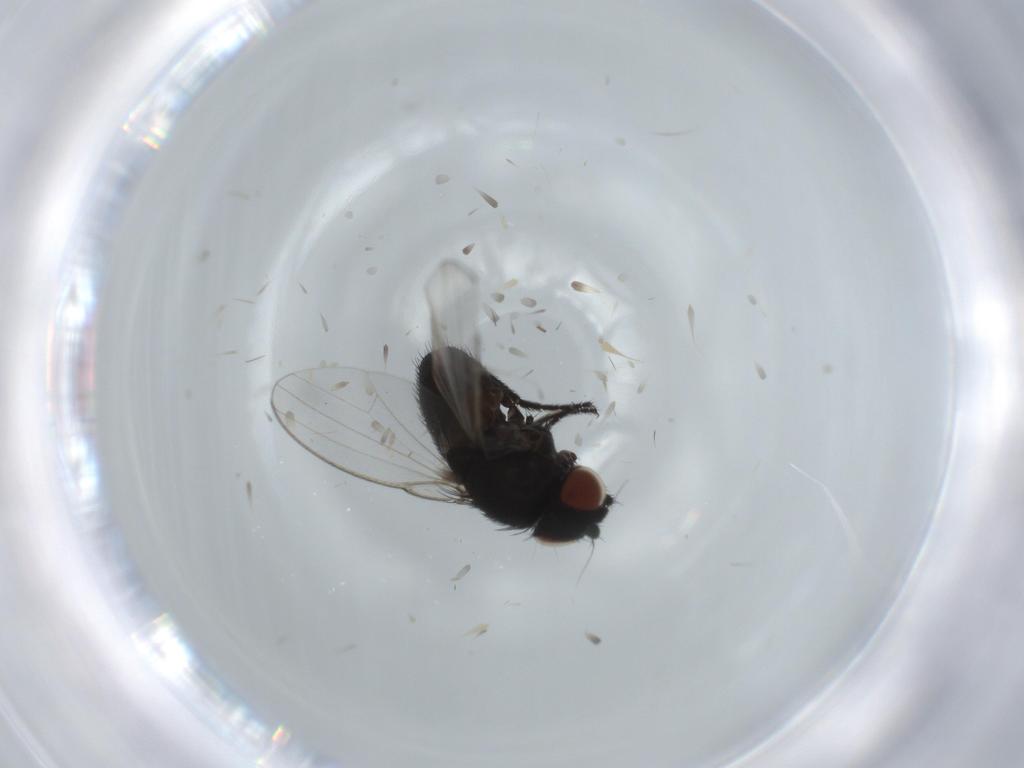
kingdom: Animalia
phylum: Arthropoda
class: Insecta
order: Diptera
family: Milichiidae
